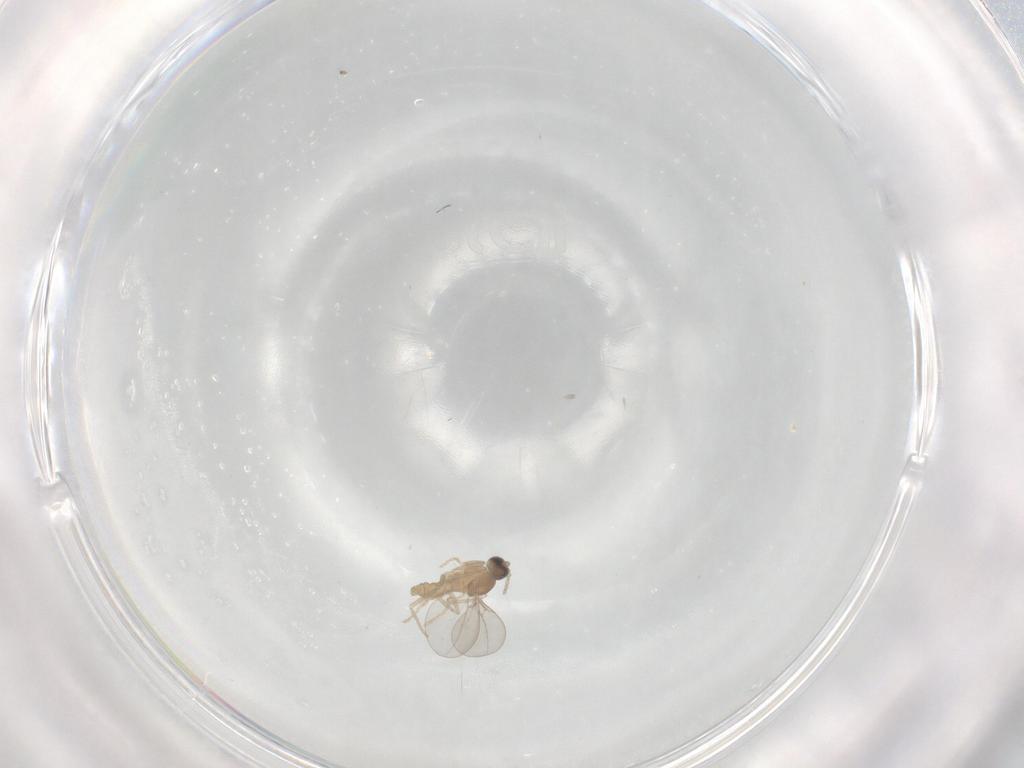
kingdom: Animalia
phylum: Arthropoda
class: Insecta
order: Diptera
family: Cecidomyiidae
